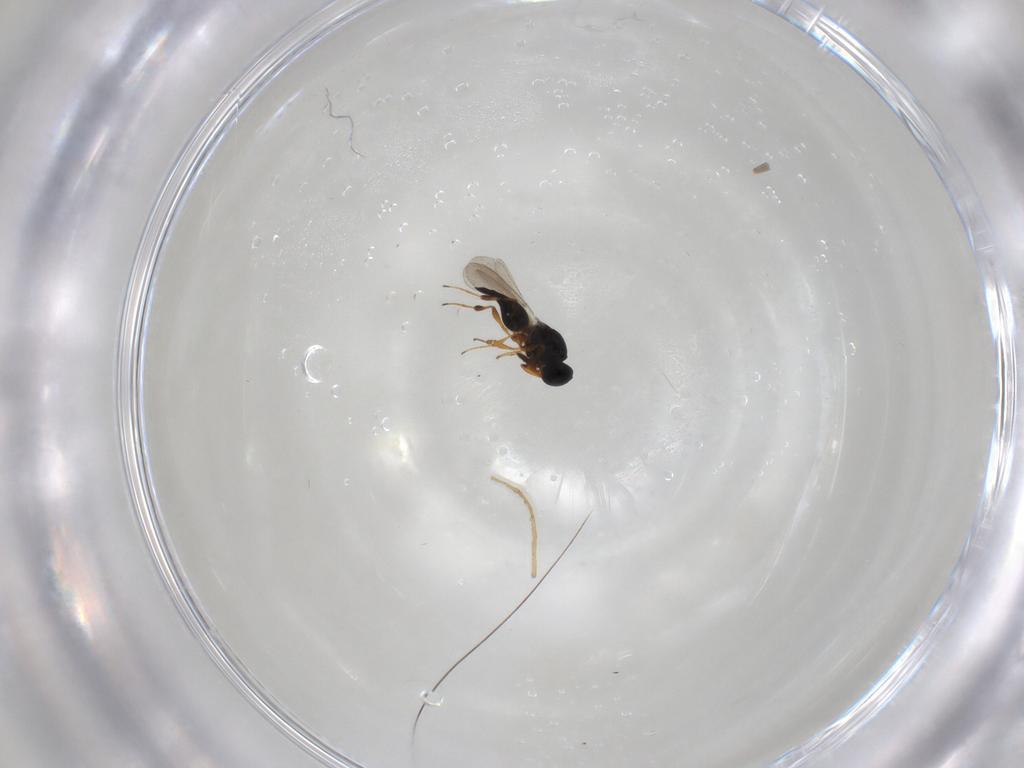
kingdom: Animalia
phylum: Arthropoda
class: Insecta
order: Hymenoptera
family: Platygastridae
